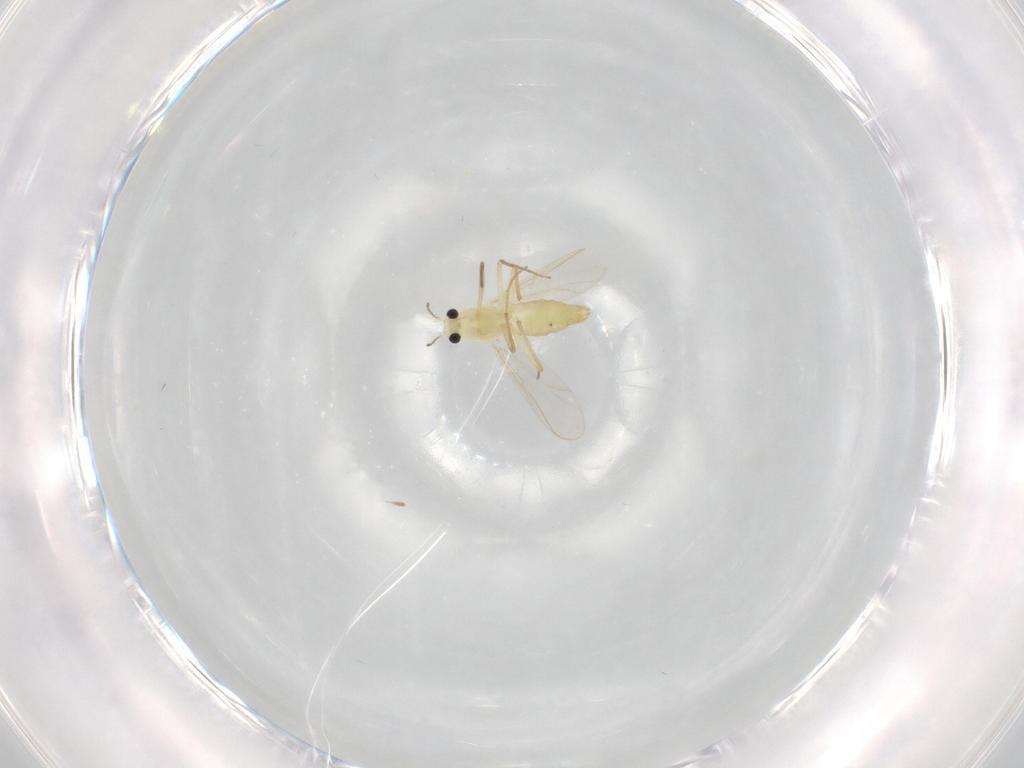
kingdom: Animalia
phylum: Arthropoda
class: Insecta
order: Diptera
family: Chironomidae
